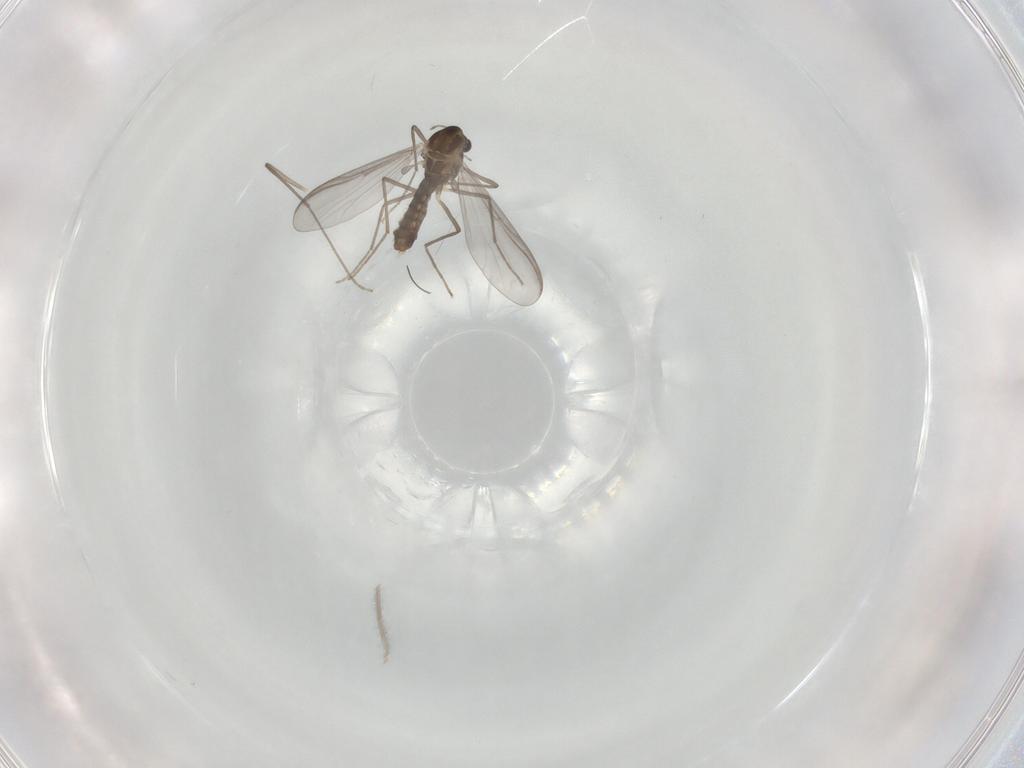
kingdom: Animalia
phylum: Arthropoda
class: Insecta
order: Diptera
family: Chironomidae
